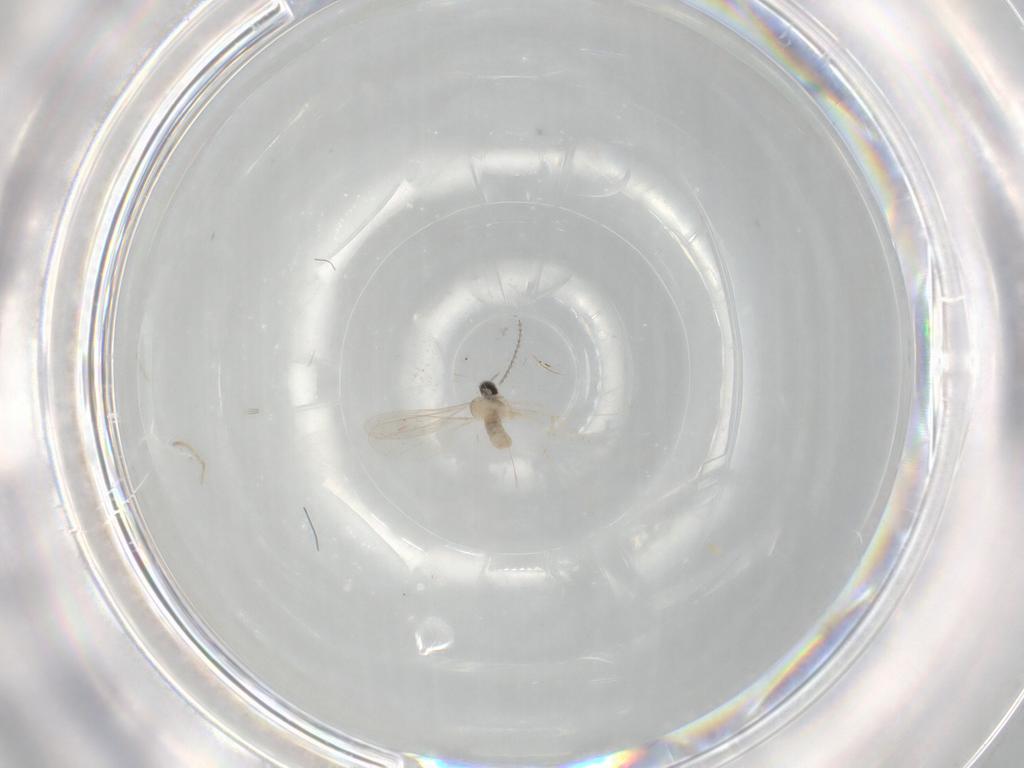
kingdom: Animalia
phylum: Arthropoda
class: Insecta
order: Diptera
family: Cecidomyiidae
